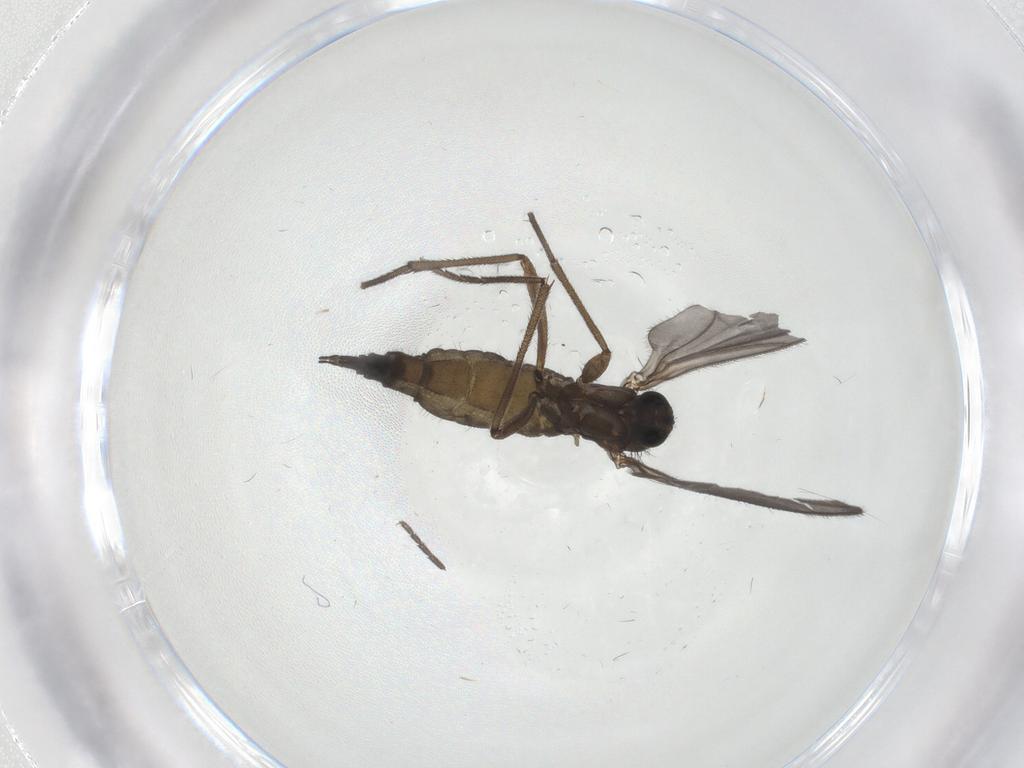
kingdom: Animalia
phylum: Arthropoda
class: Insecta
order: Diptera
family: Sciaridae
